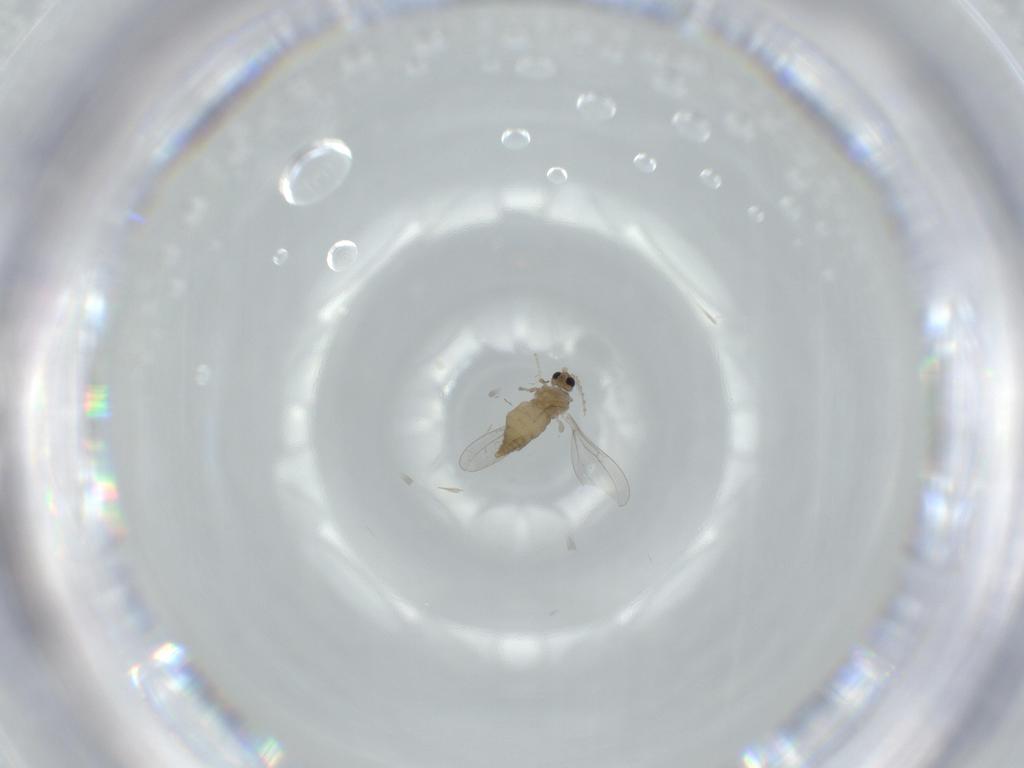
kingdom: Animalia
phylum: Arthropoda
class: Insecta
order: Diptera
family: Cecidomyiidae
